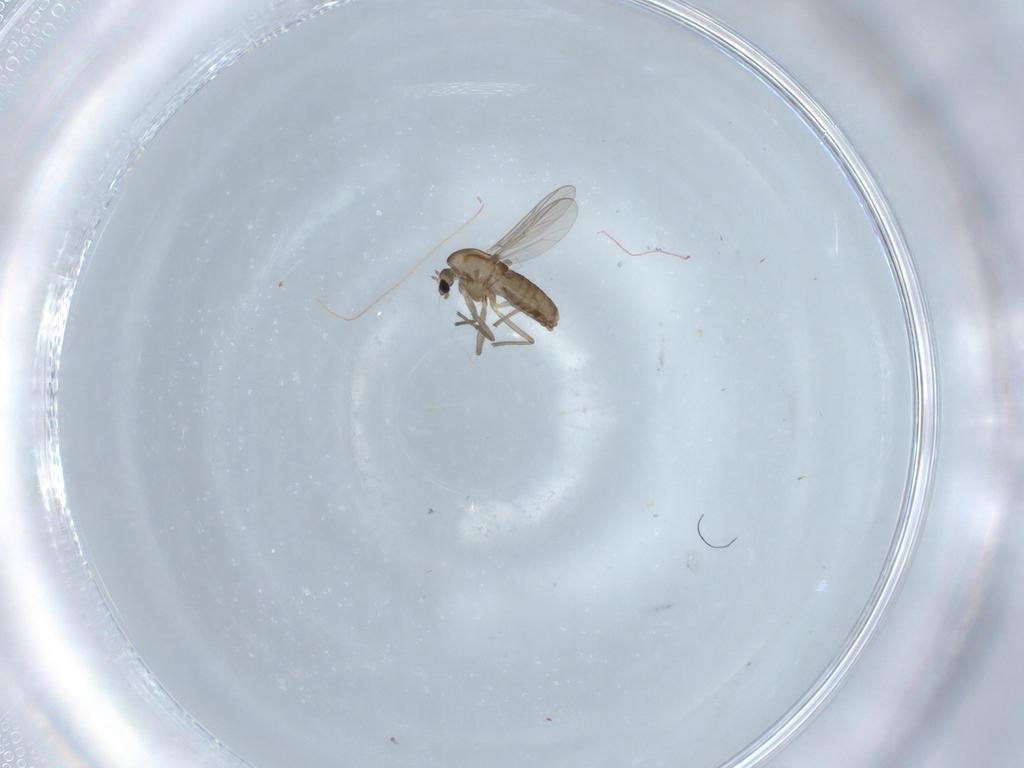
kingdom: Animalia
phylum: Arthropoda
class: Insecta
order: Diptera
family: Chironomidae
